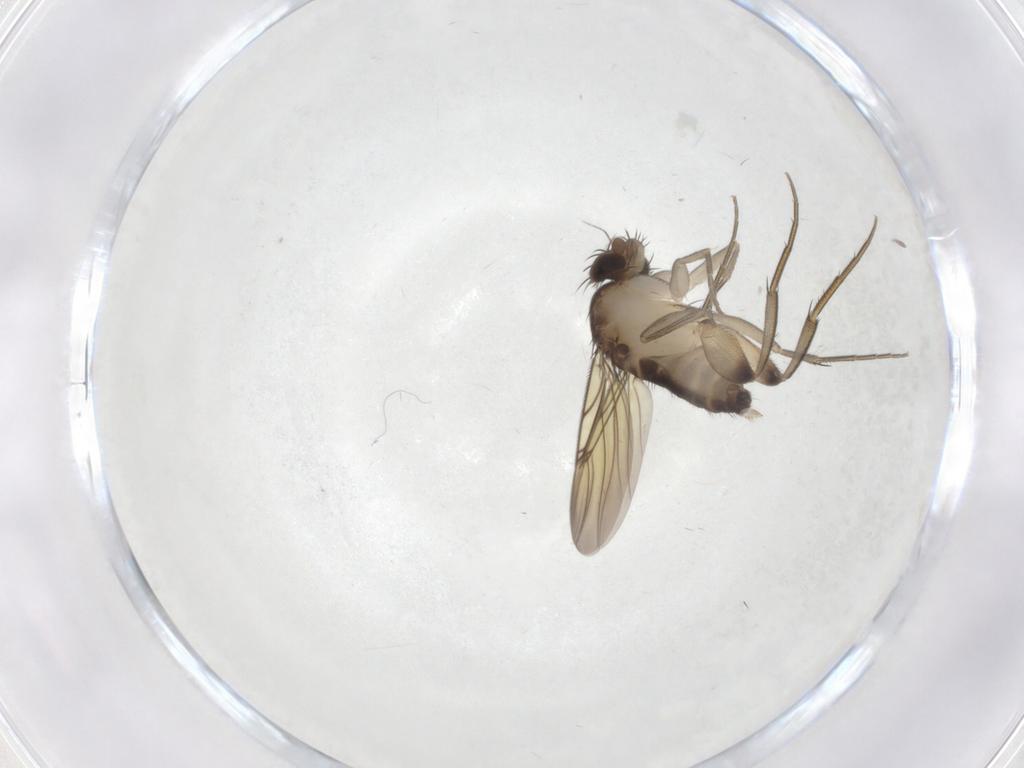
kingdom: Animalia
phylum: Arthropoda
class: Insecta
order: Diptera
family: Phoridae
